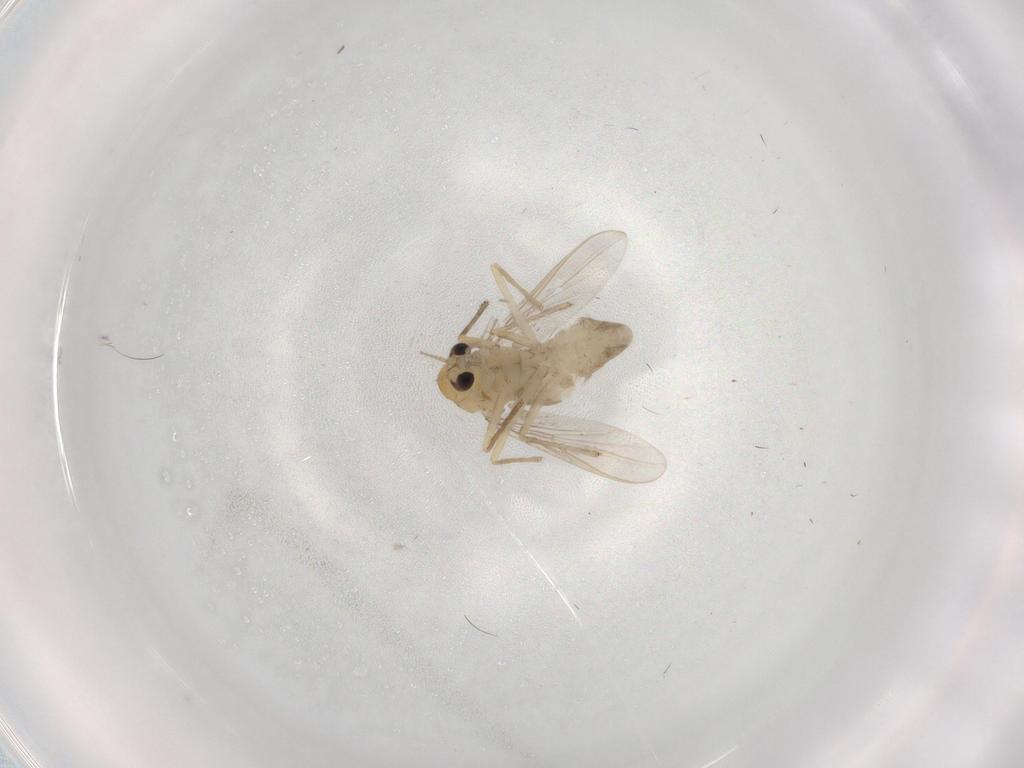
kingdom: Animalia
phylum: Arthropoda
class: Insecta
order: Diptera
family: Chironomidae
